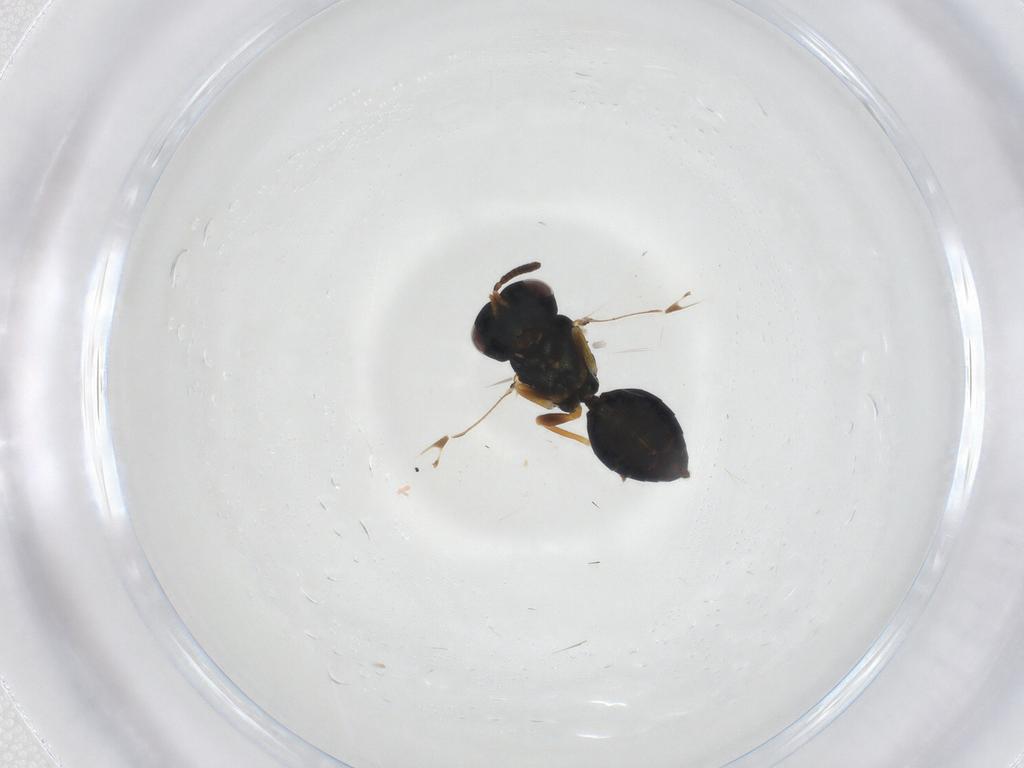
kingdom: Animalia
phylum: Arthropoda
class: Insecta
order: Hymenoptera
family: Pteromalidae
